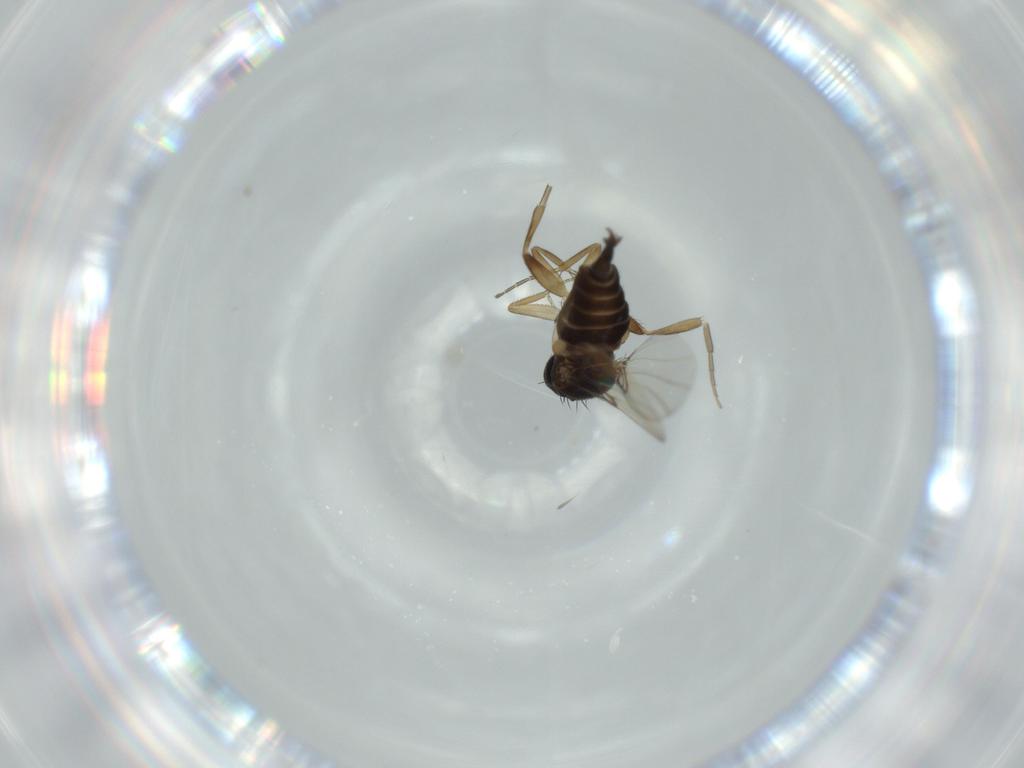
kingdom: Animalia
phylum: Arthropoda
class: Insecta
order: Diptera
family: Phoridae
